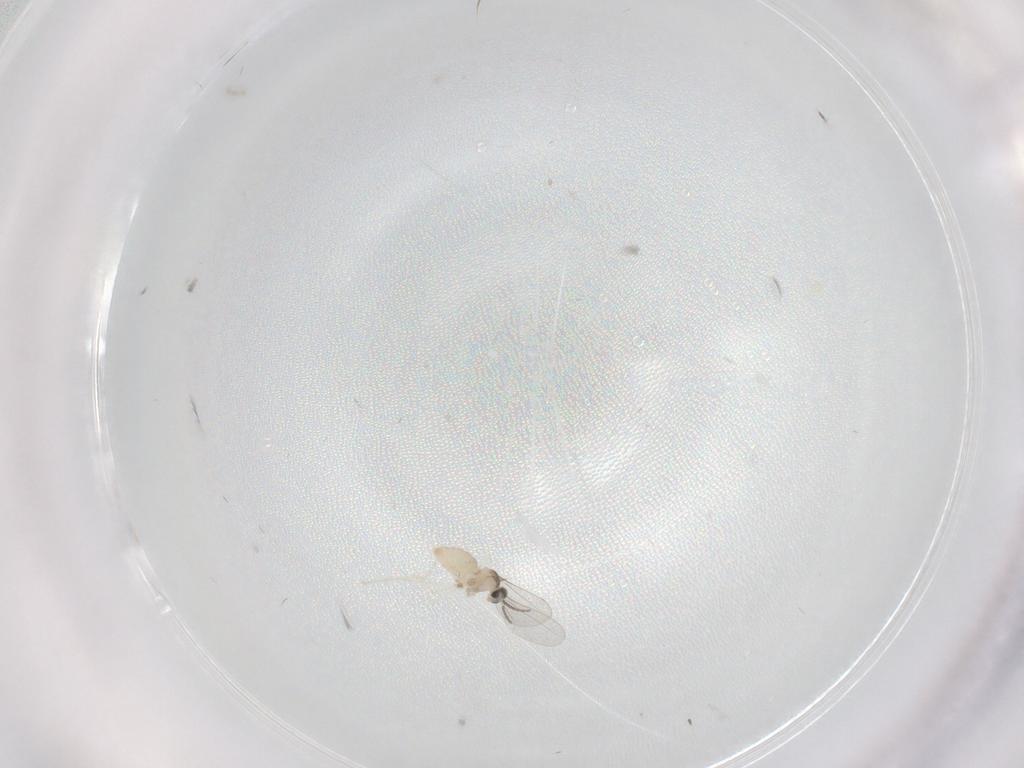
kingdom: Animalia
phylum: Arthropoda
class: Insecta
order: Diptera
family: Cecidomyiidae
